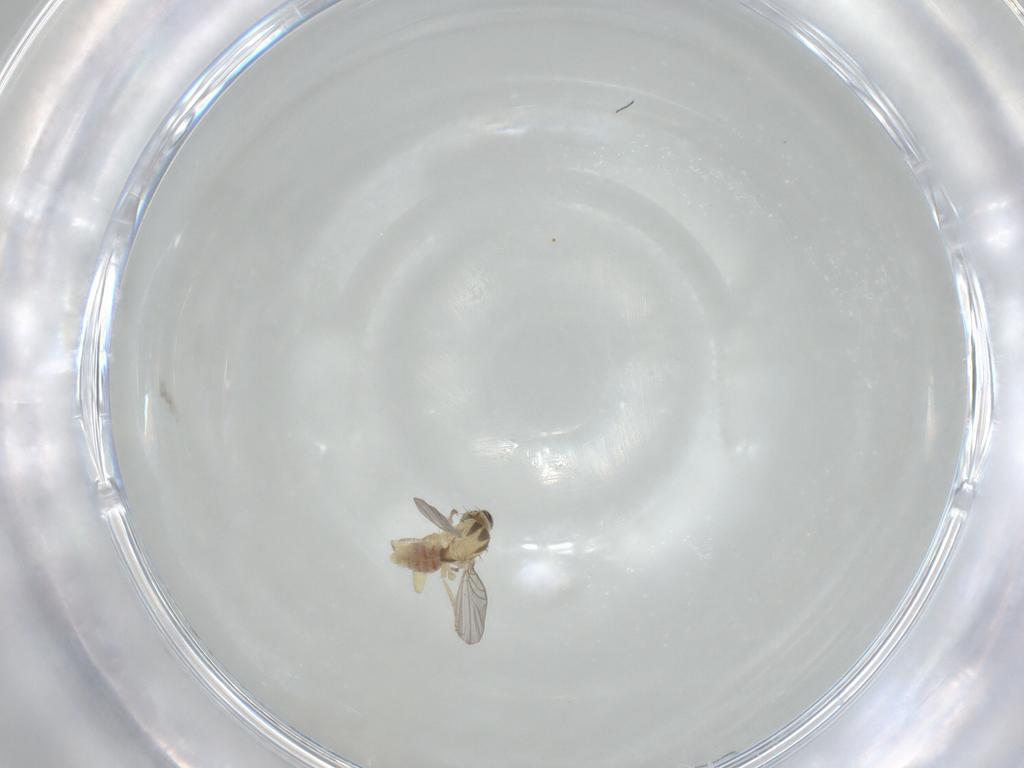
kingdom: Animalia
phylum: Arthropoda
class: Insecta
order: Diptera
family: Agromyzidae
